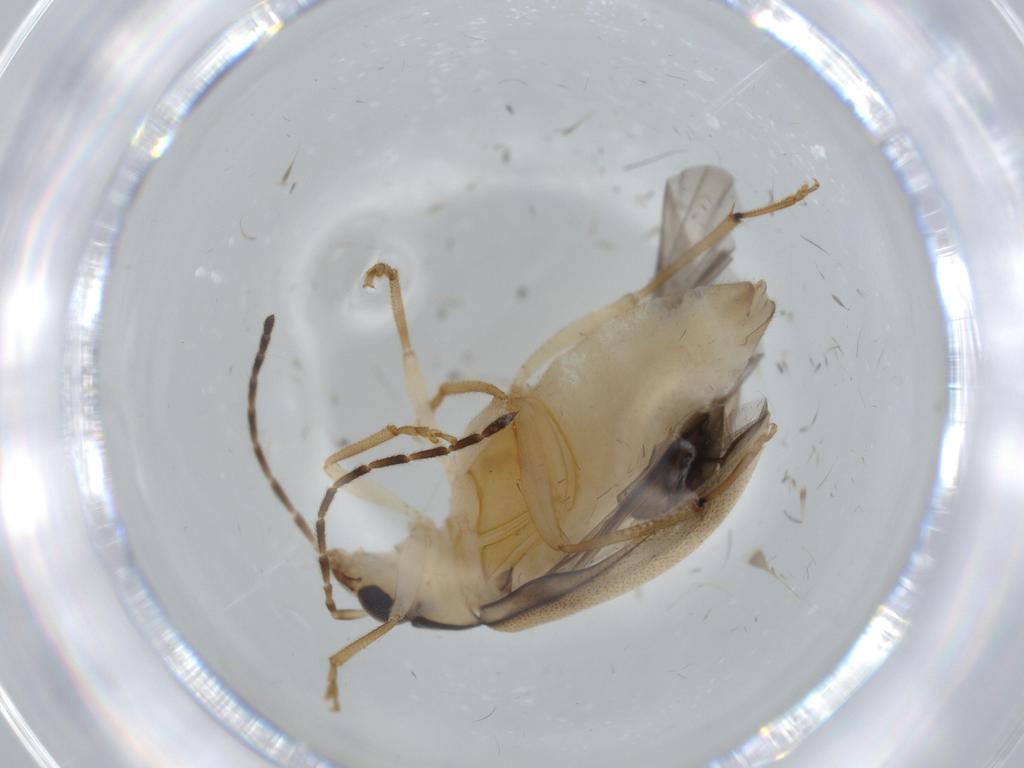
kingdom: Animalia
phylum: Arthropoda
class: Insecta
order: Coleoptera
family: Chrysomelidae
